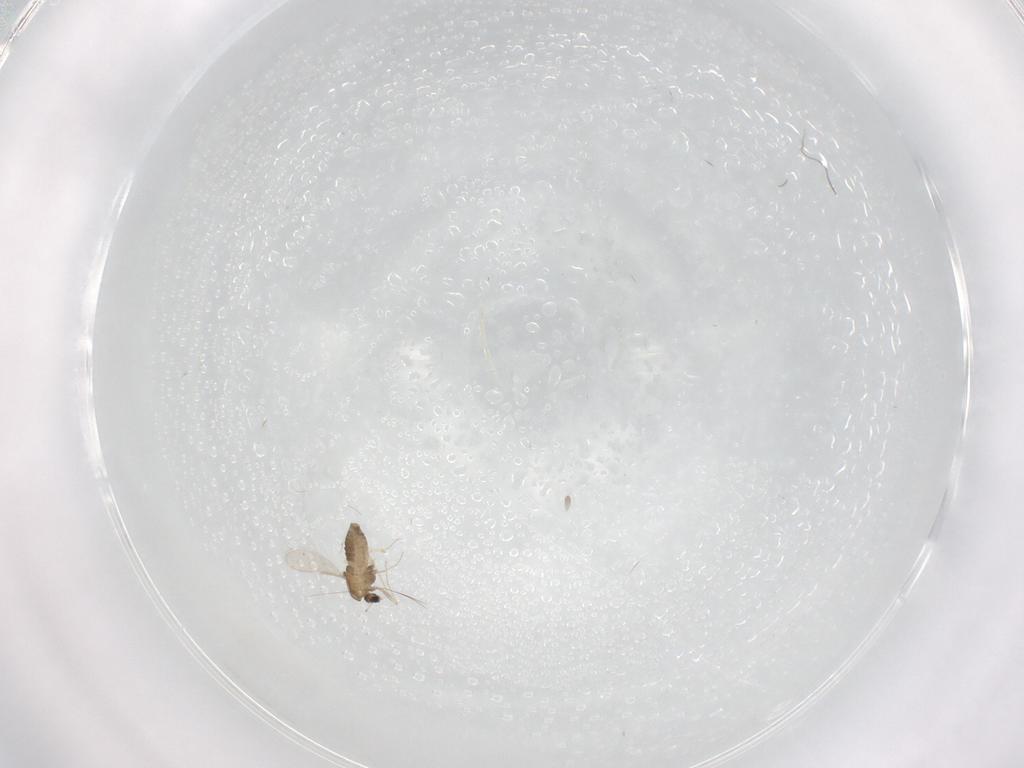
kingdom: Animalia
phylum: Arthropoda
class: Insecta
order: Diptera
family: Chironomidae
